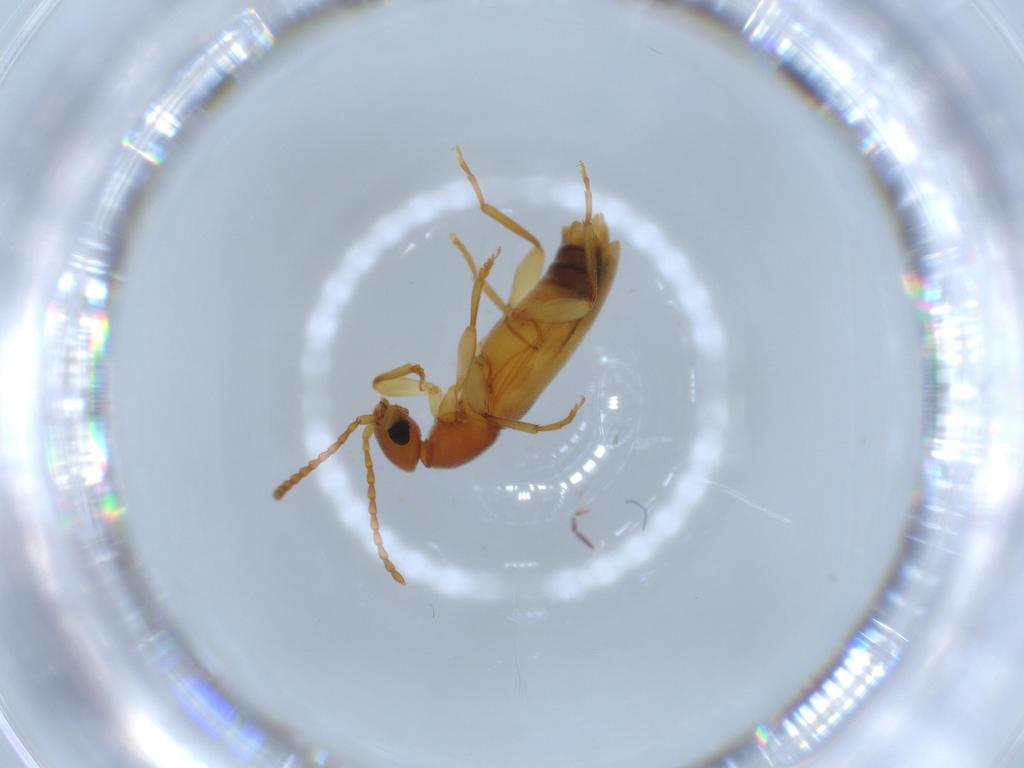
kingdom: Animalia
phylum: Arthropoda
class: Insecta
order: Coleoptera
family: Anthicidae
